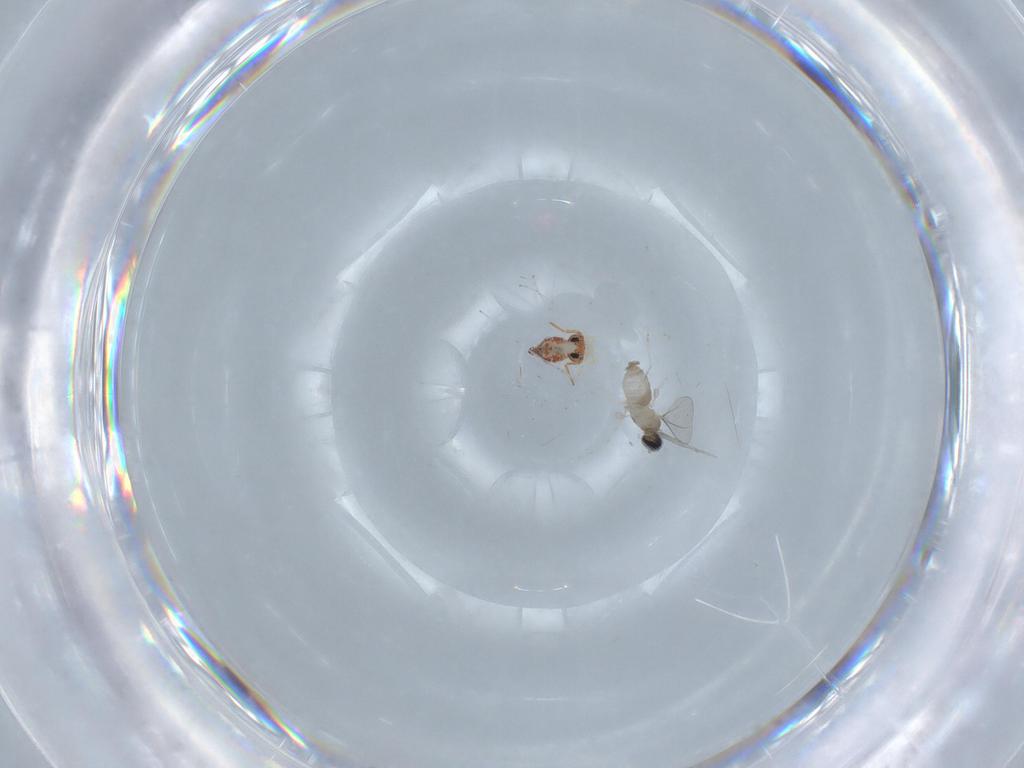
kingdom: Animalia
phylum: Arthropoda
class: Insecta
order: Diptera
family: Cecidomyiidae
